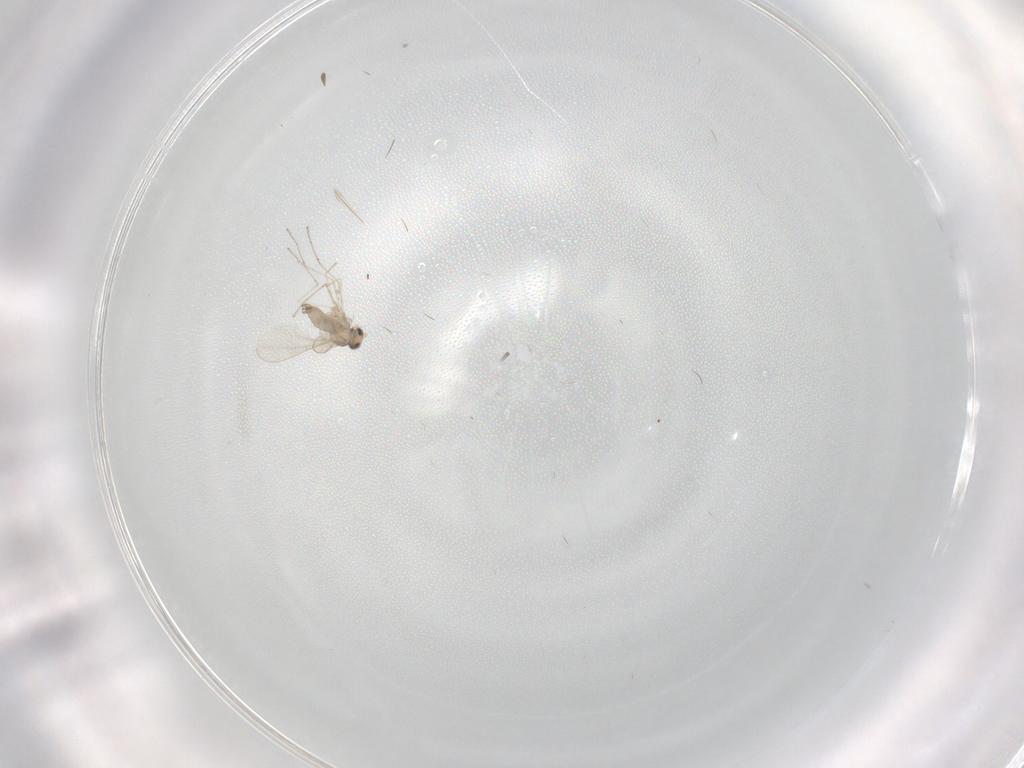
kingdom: Animalia
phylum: Arthropoda
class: Insecta
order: Diptera
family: Cecidomyiidae
